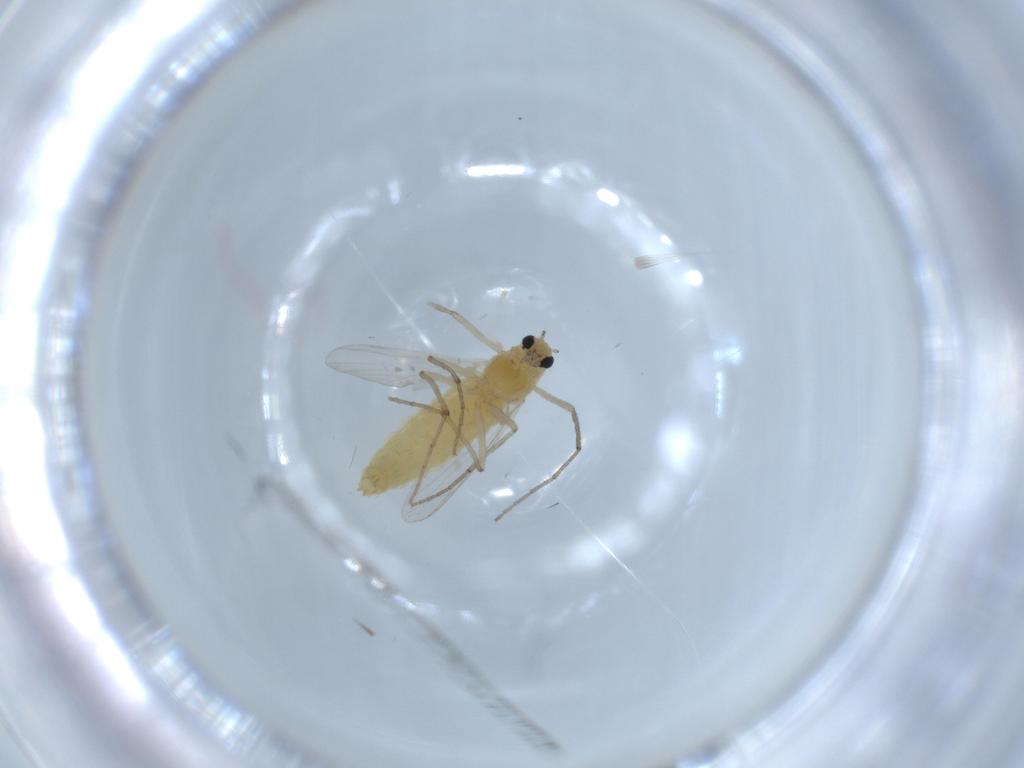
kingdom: Animalia
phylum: Arthropoda
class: Insecta
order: Diptera
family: Chironomidae
